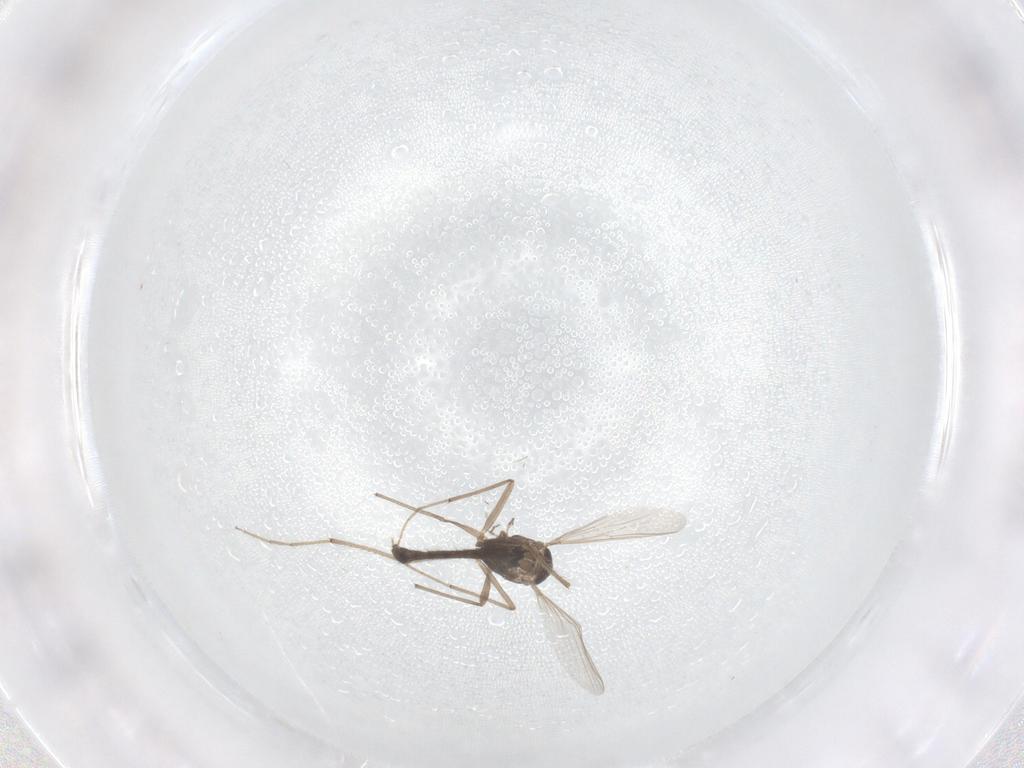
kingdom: Animalia
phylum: Arthropoda
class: Insecta
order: Diptera
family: Chironomidae
